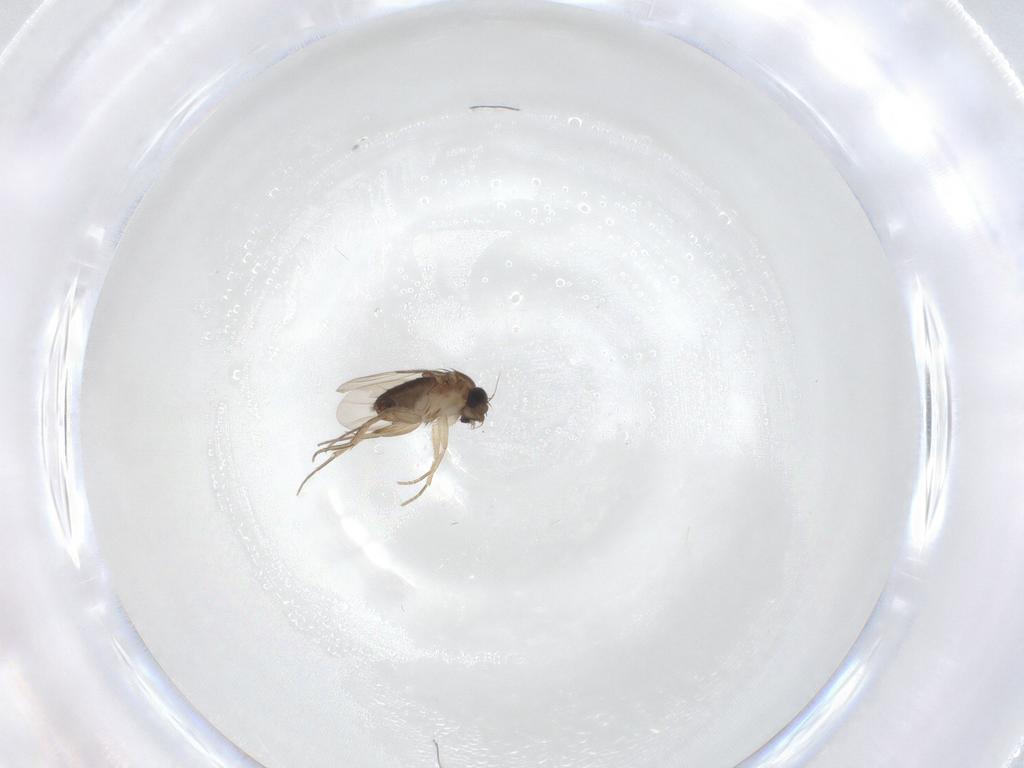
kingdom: Animalia
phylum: Arthropoda
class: Insecta
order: Diptera
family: Phoridae
